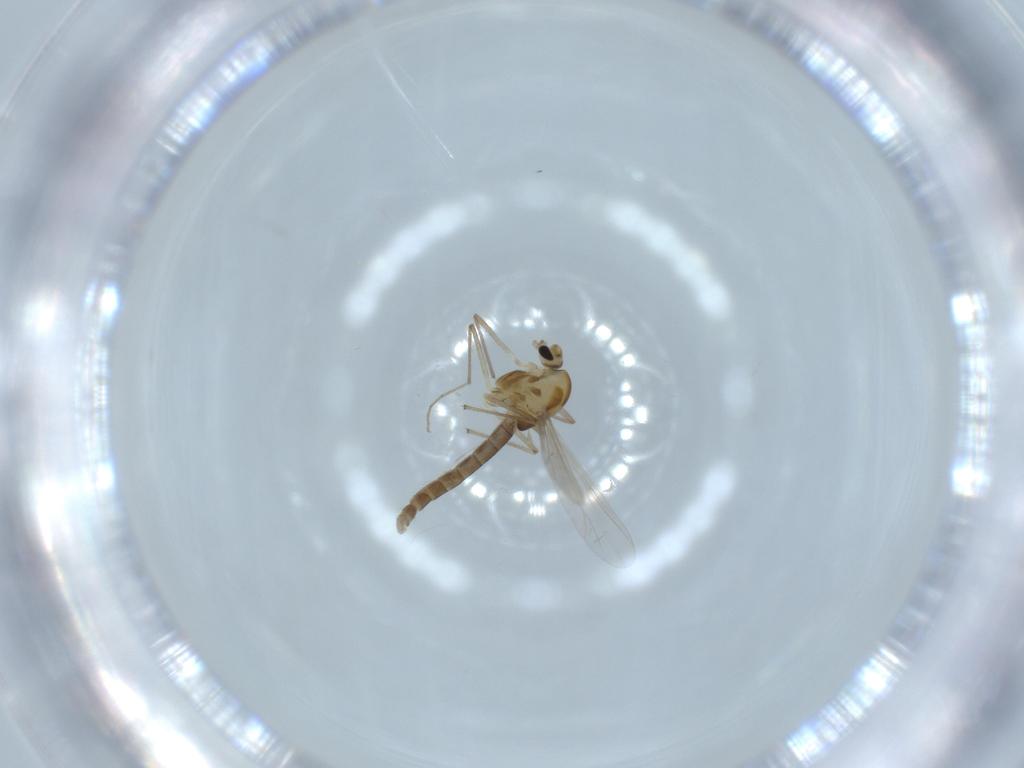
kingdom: Animalia
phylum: Arthropoda
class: Insecta
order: Diptera
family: Chironomidae
